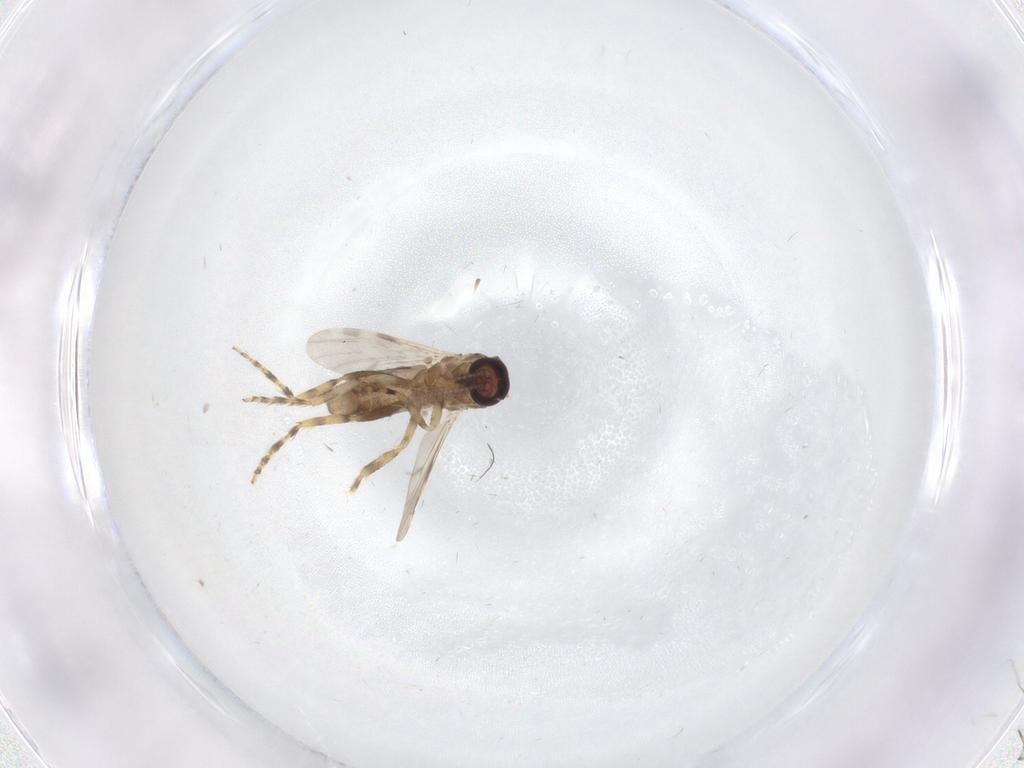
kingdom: Animalia
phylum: Arthropoda
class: Insecta
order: Diptera
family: Ceratopogonidae
